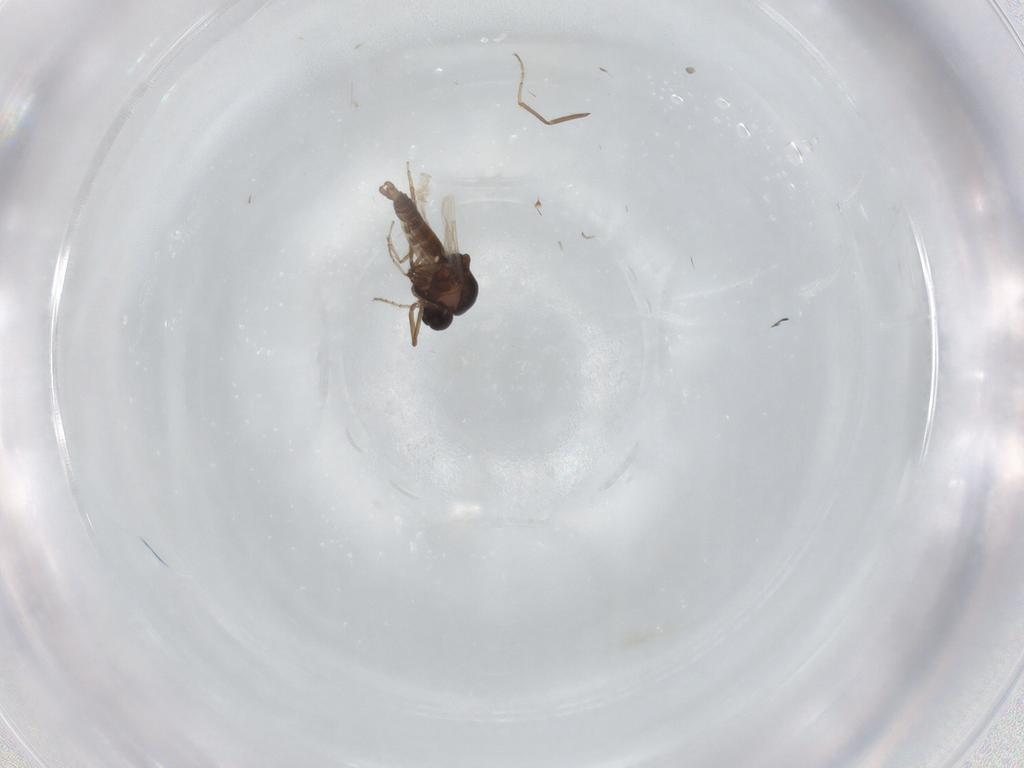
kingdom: Animalia
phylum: Arthropoda
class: Insecta
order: Diptera
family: Ceratopogonidae
